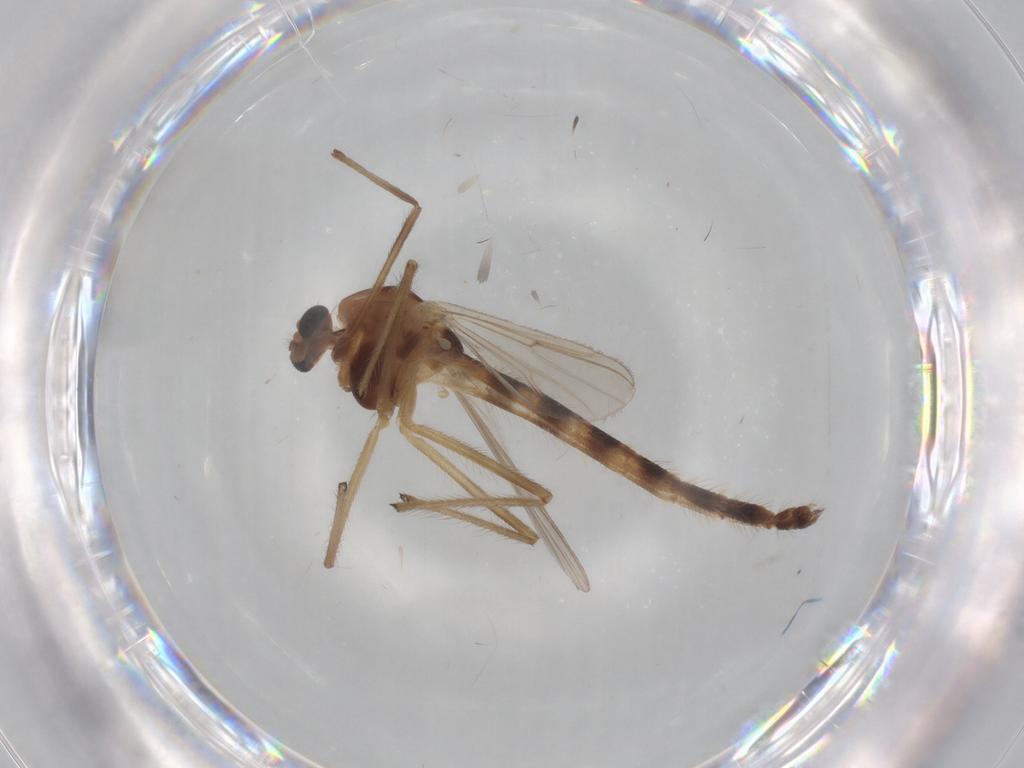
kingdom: Animalia
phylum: Arthropoda
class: Insecta
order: Diptera
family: Chironomidae
